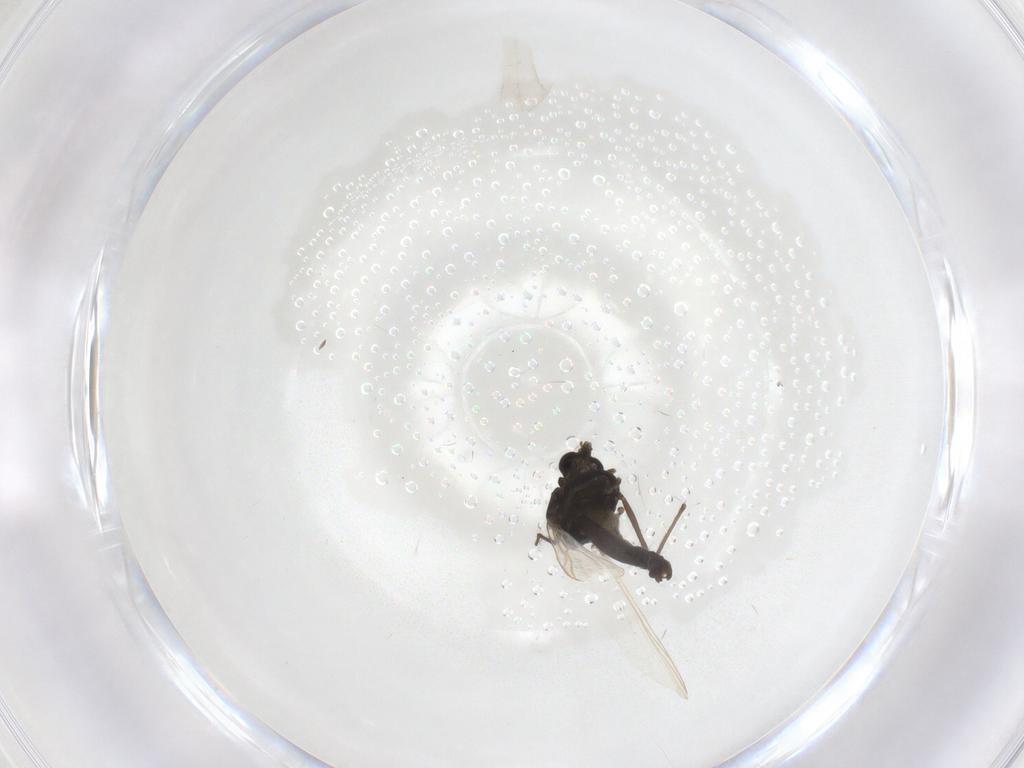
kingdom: Animalia
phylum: Arthropoda
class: Insecta
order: Diptera
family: Chironomidae
